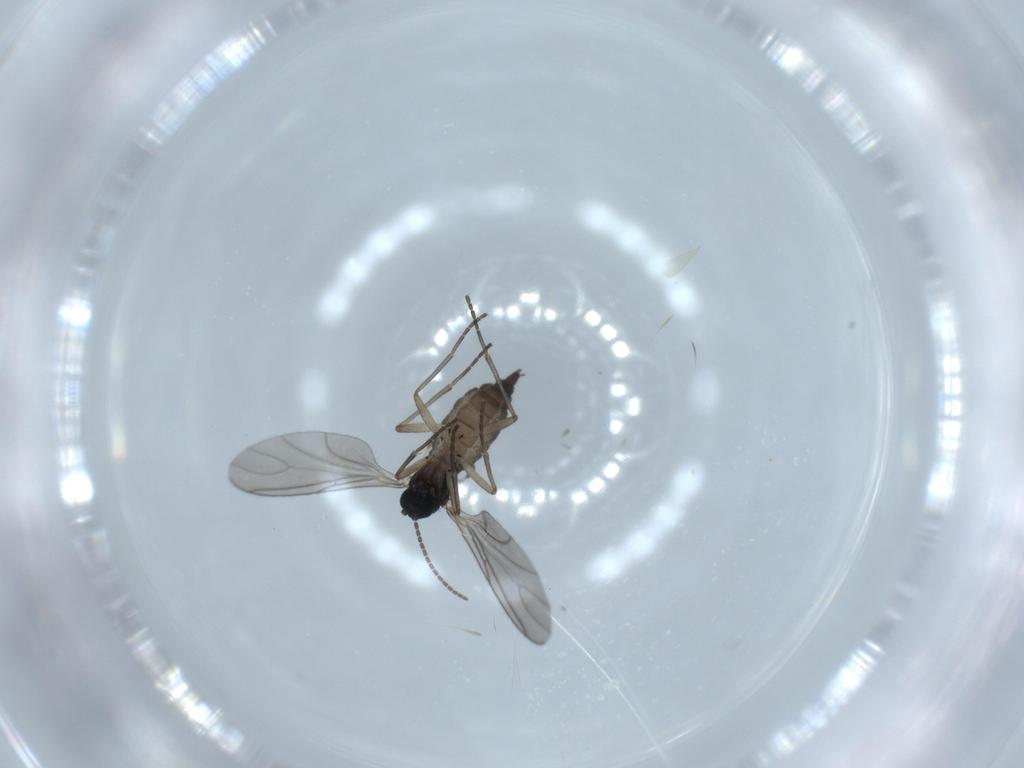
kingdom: Animalia
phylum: Arthropoda
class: Insecta
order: Diptera
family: Sciaridae
